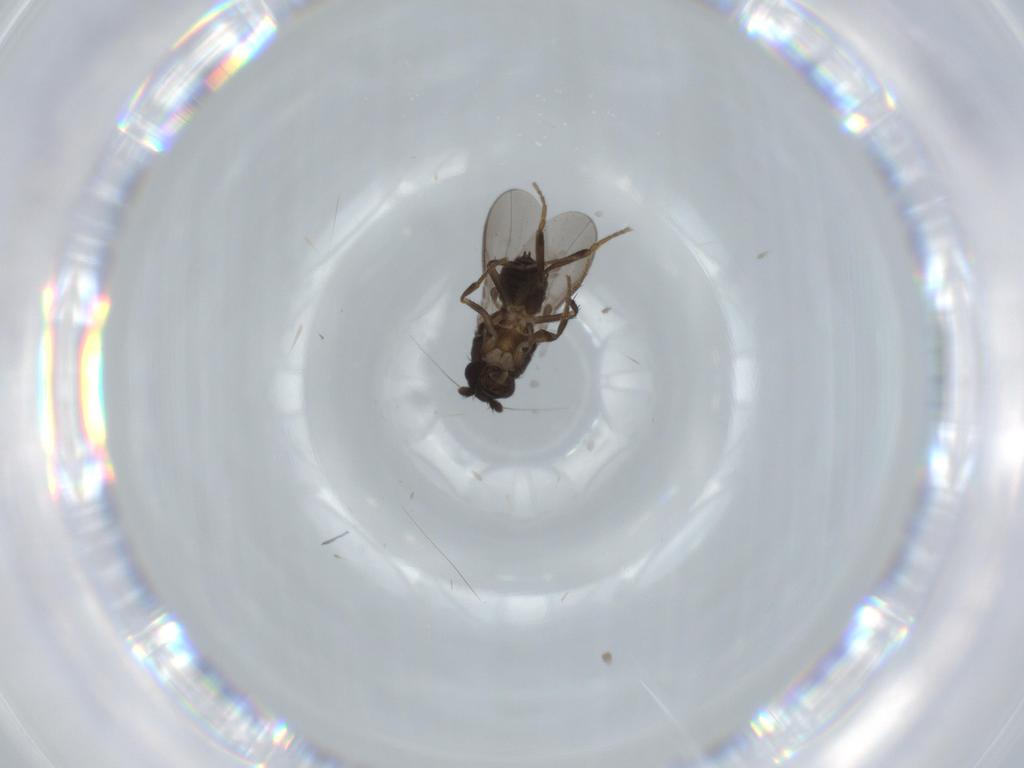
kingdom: Animalia
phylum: Arthropoda
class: Insecta
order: Diptera
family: Sphaeroceridae
